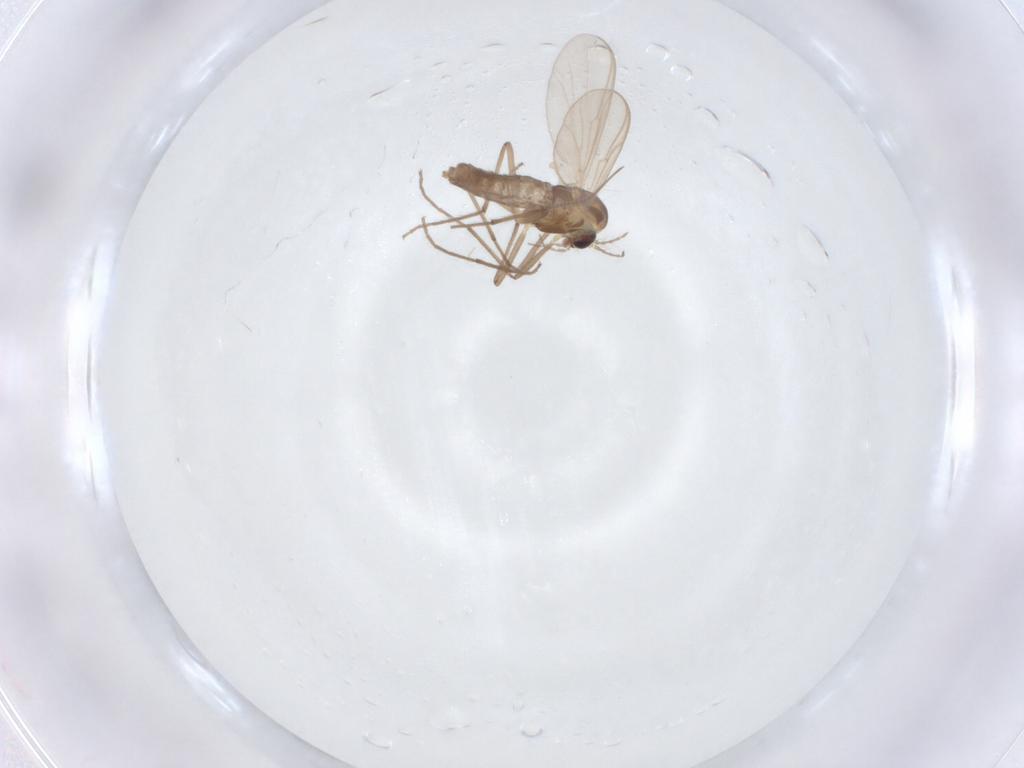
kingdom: Animalia
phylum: Arthropoda
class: Insecta
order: Diptera
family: Chironomidae
